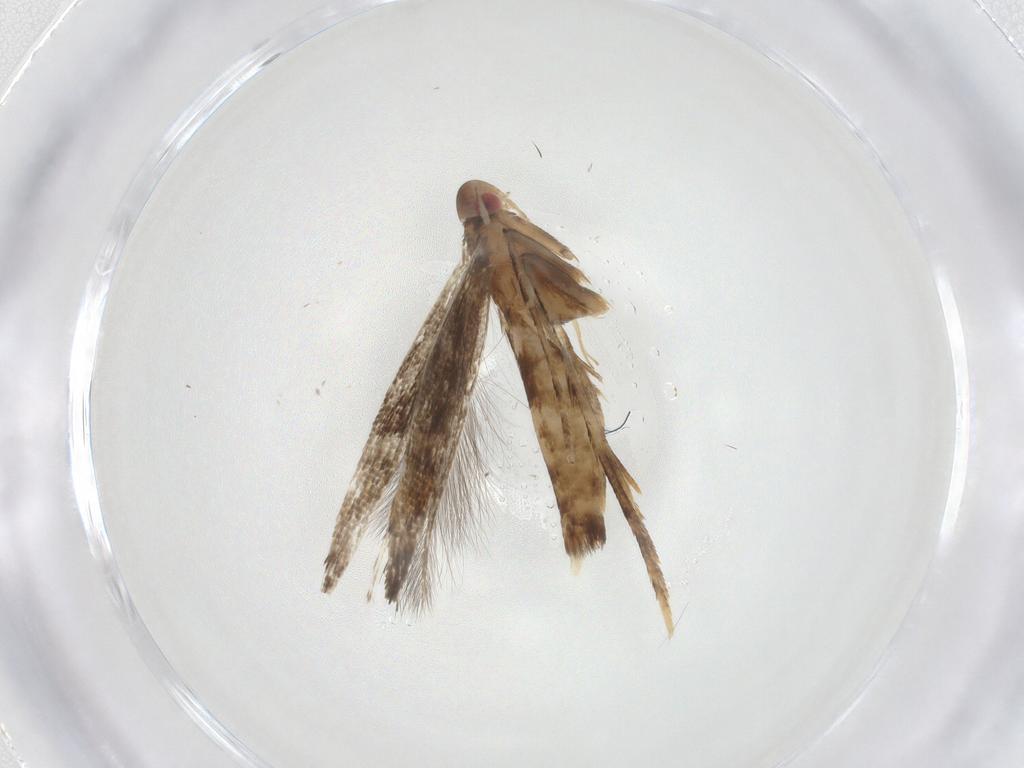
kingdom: Animalia
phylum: Arthropoda
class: Insecta
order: Lepidoptera
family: Cosmopterigidae
